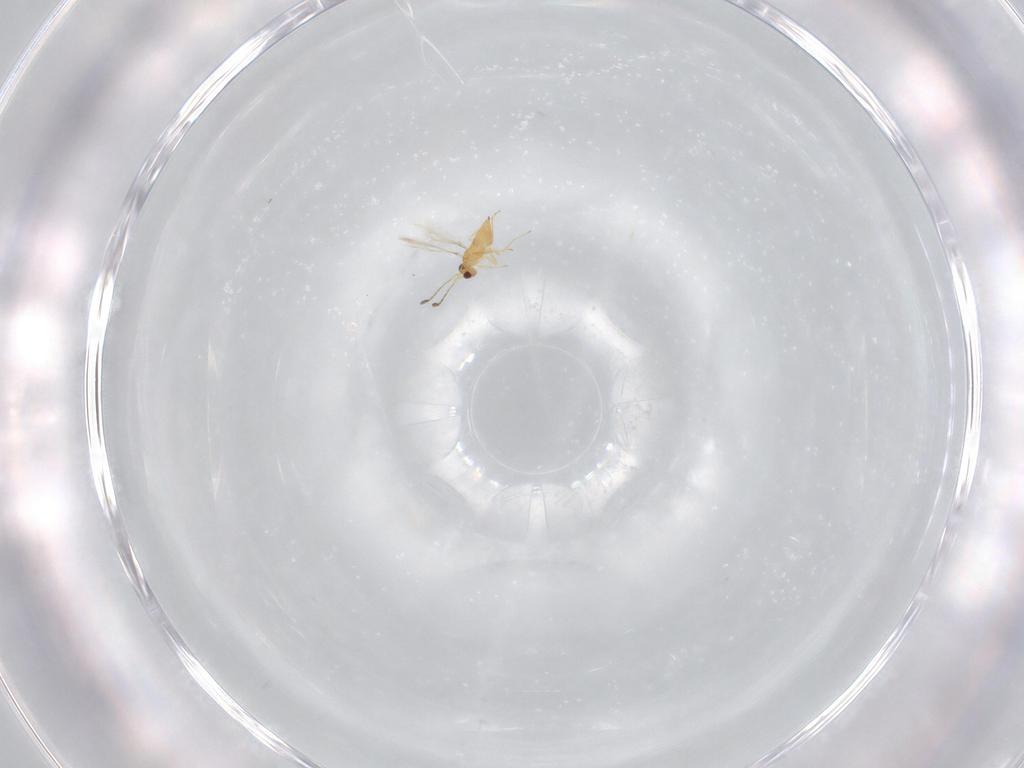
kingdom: Animalia
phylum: Arthropoda
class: Insecta
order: Hymenoptera
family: Mymaridae
